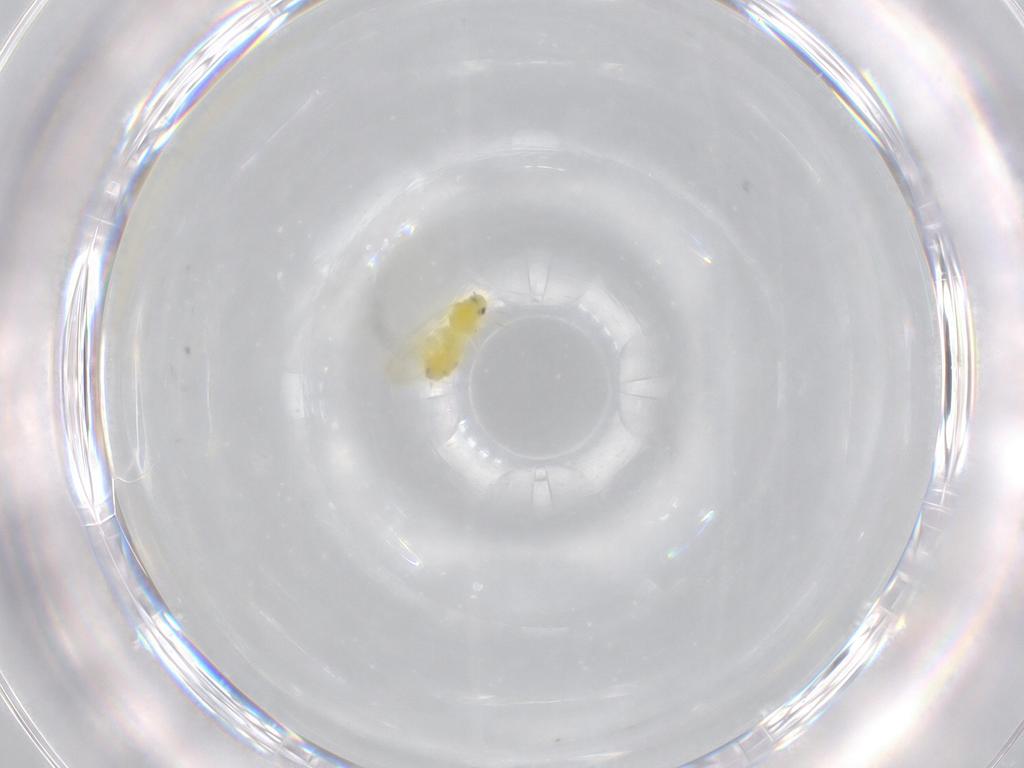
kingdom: Animalia
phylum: Arthropoda
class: Insecta
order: Hemiptera
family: Aleyrodidae
